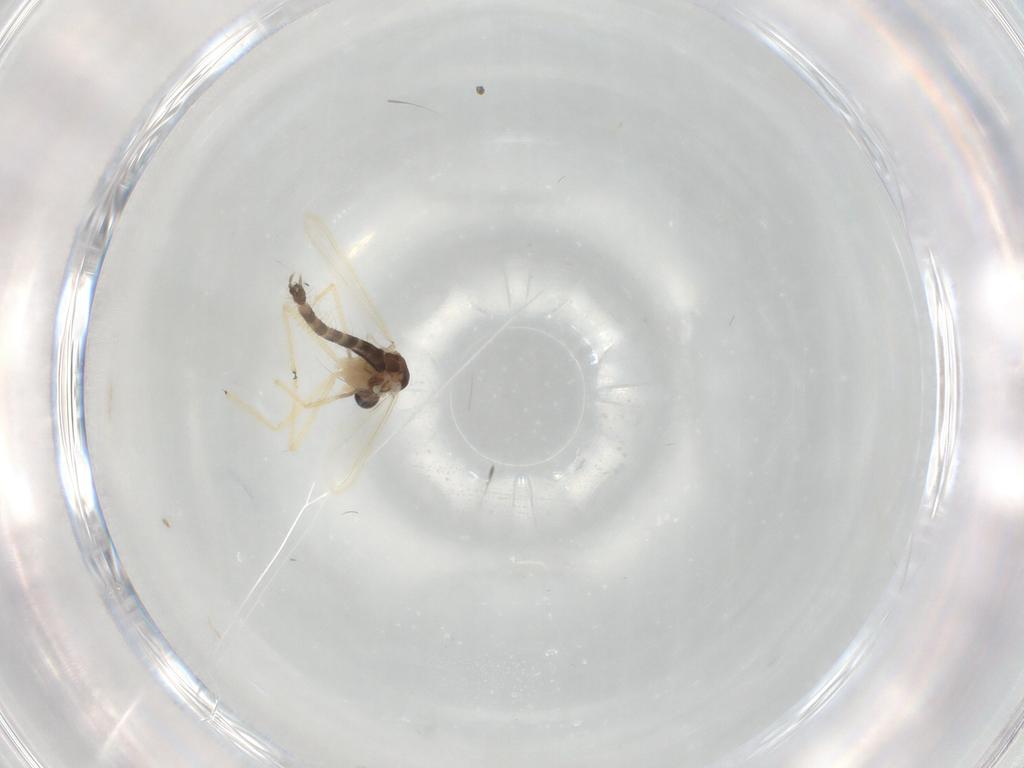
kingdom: Animalia
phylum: Arthropoda
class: Insecta
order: Diptera
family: Chironomidae
